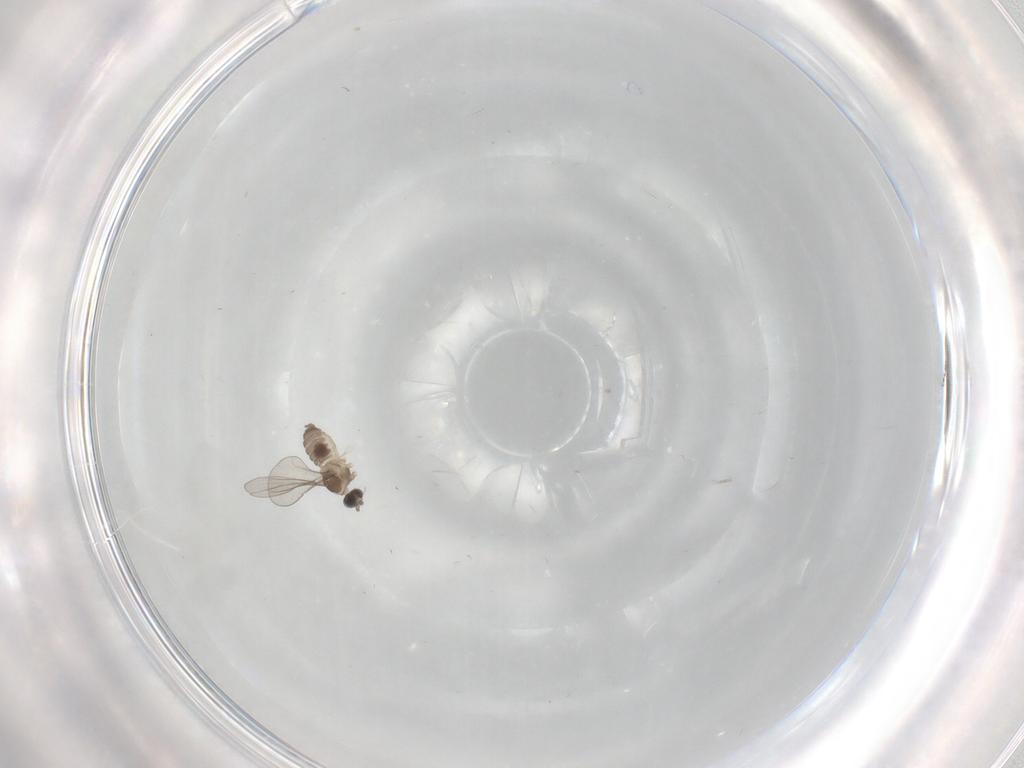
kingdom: Animalia
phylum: Arthropoda
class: Insecta
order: Diptera
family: Cecidomyiidae
